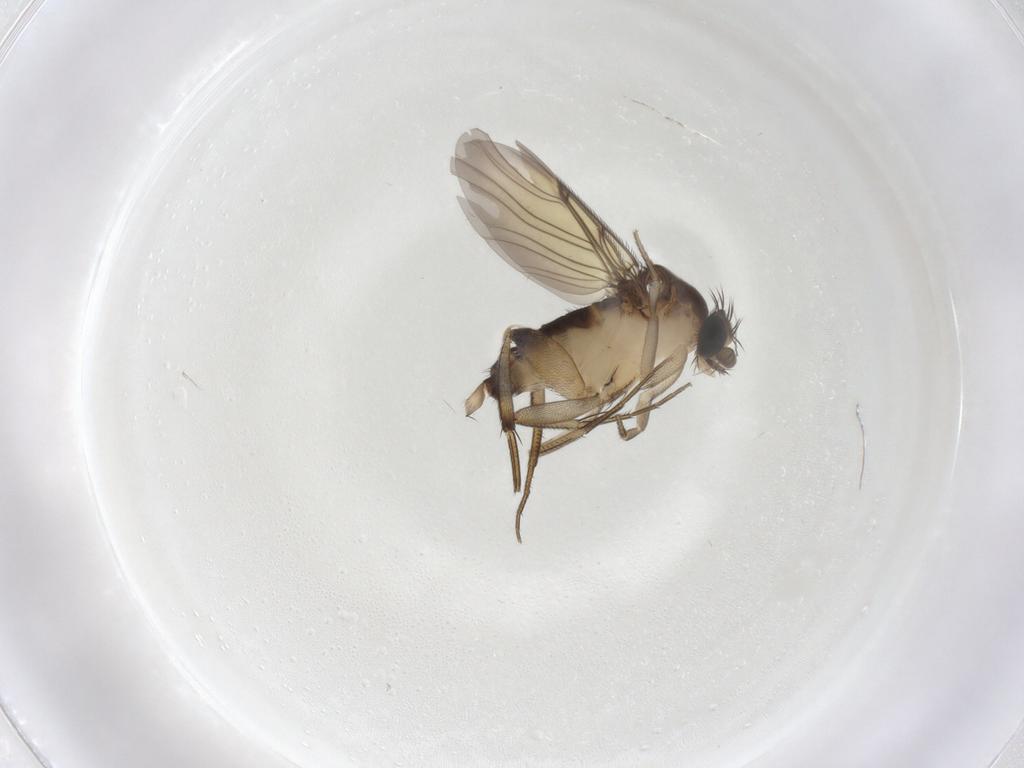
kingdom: Animalia
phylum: Arthropoda
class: Insecta
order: Diptera
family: Phoridae
